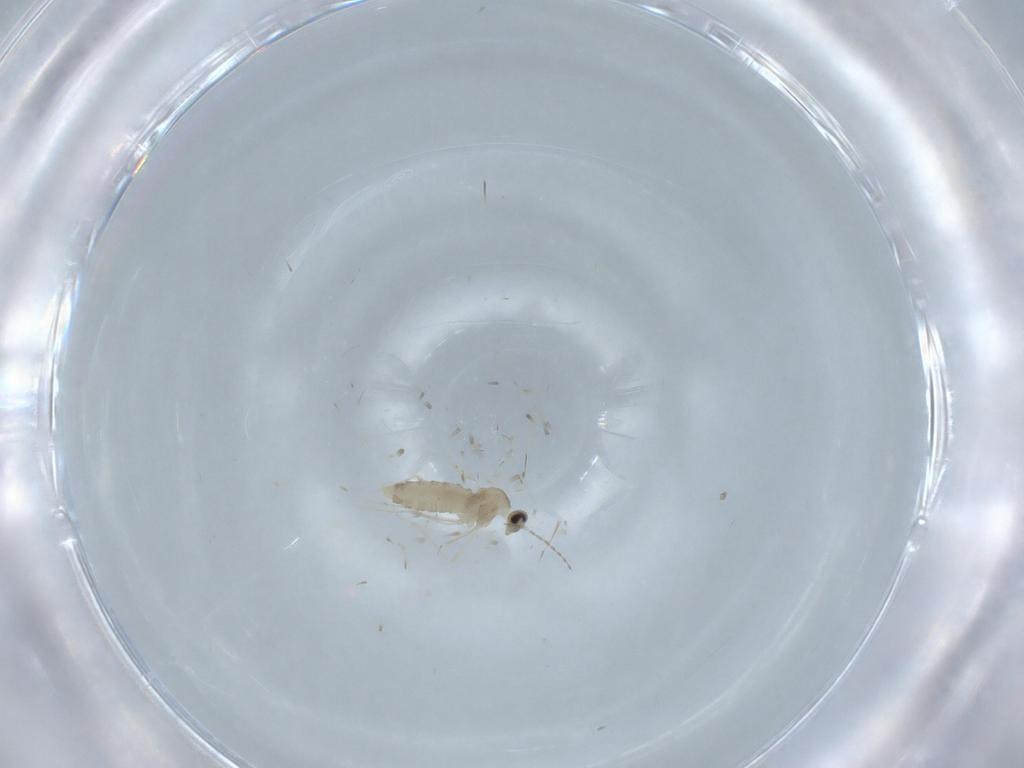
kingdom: Animalia
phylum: Arthropoda
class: Insecta
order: Diptera
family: Cecidomyiidae
